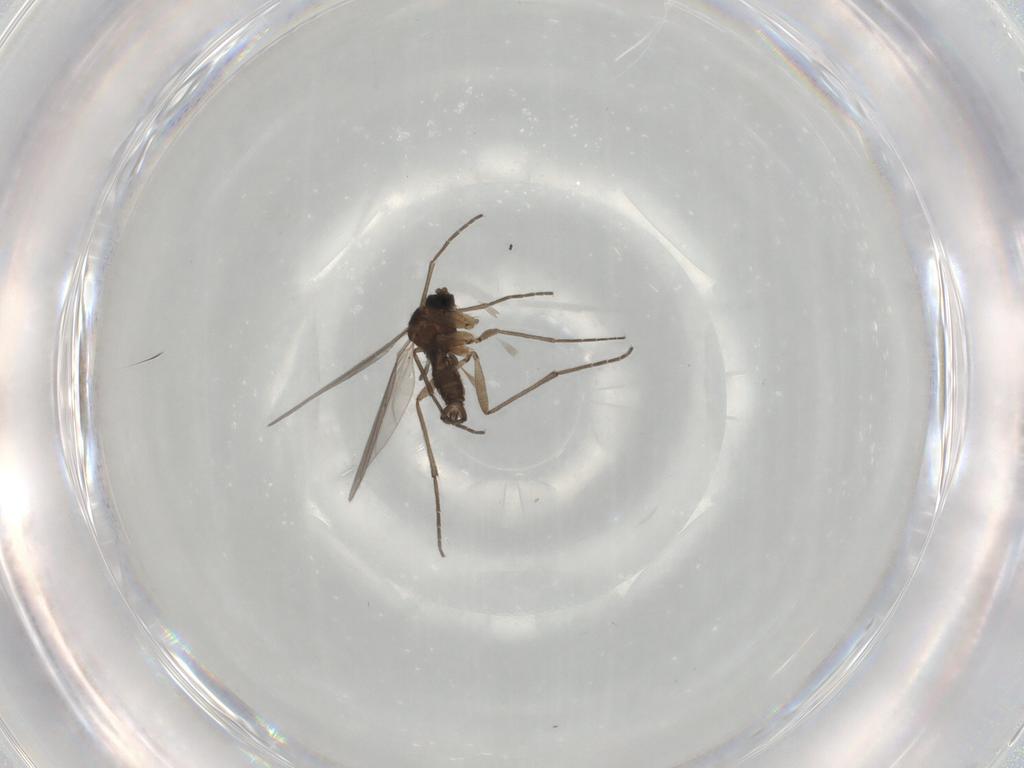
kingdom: Animalia
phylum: Arthropoda
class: Insecta
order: Diptera
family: Sciaridae
